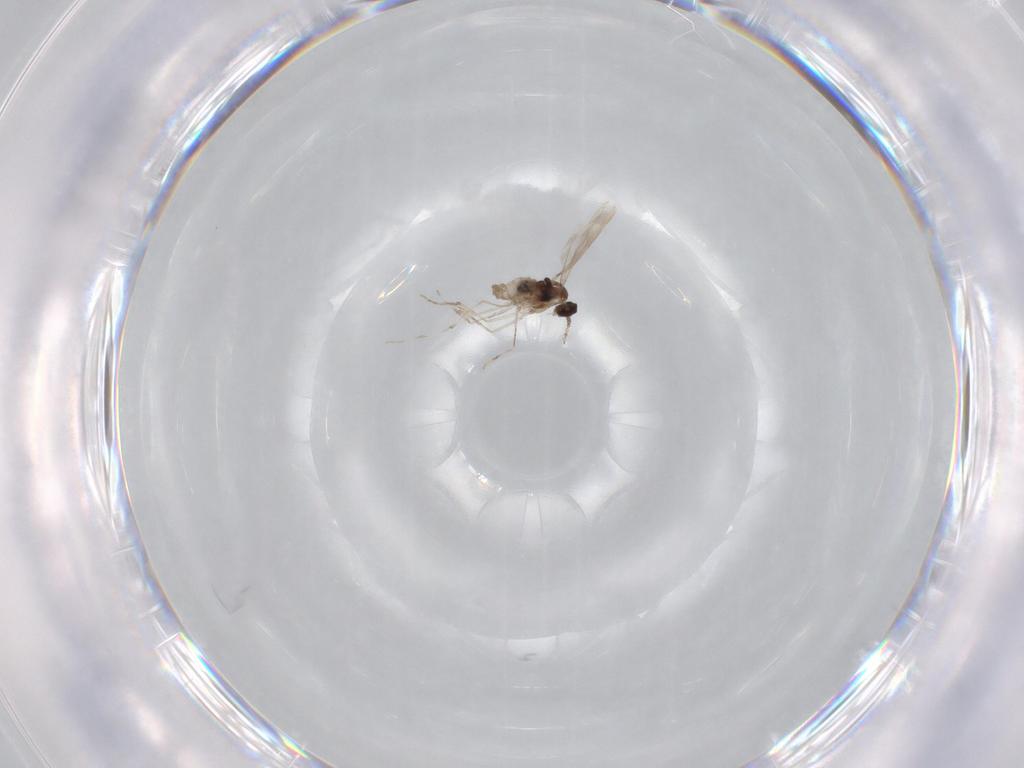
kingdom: Animalia
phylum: Arthropoda
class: Insecta
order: Diptera
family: Chironomidae
